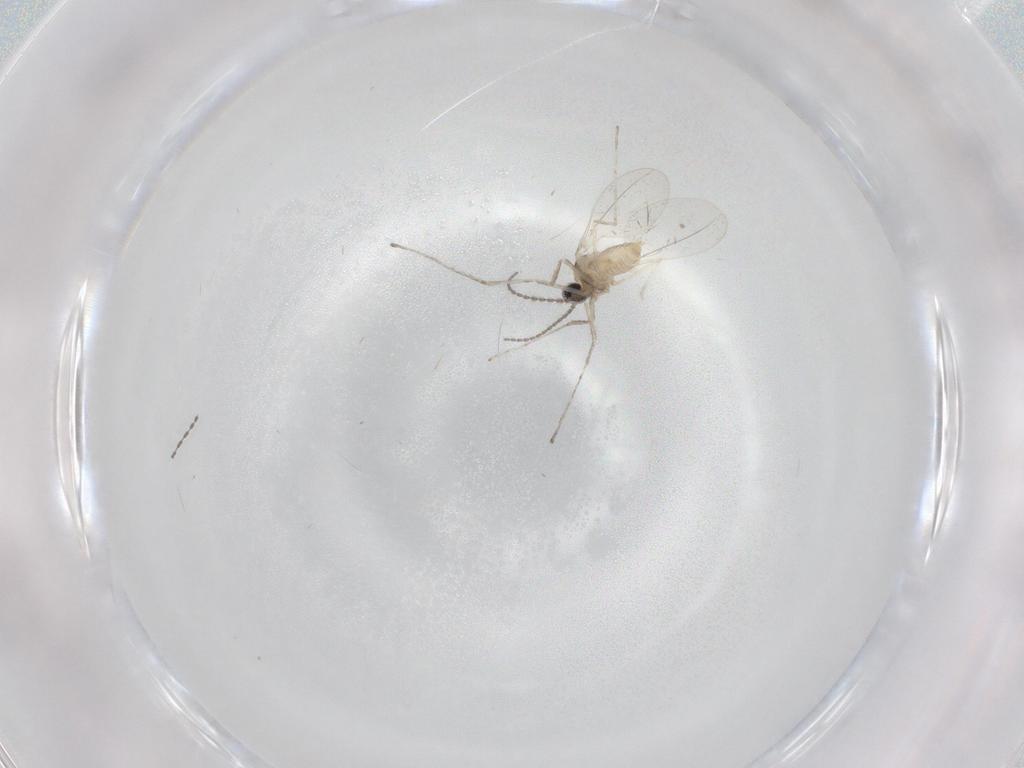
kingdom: Animalia
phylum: Arthropoda
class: Insecta
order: Diptera
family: Cecidomyiidae
